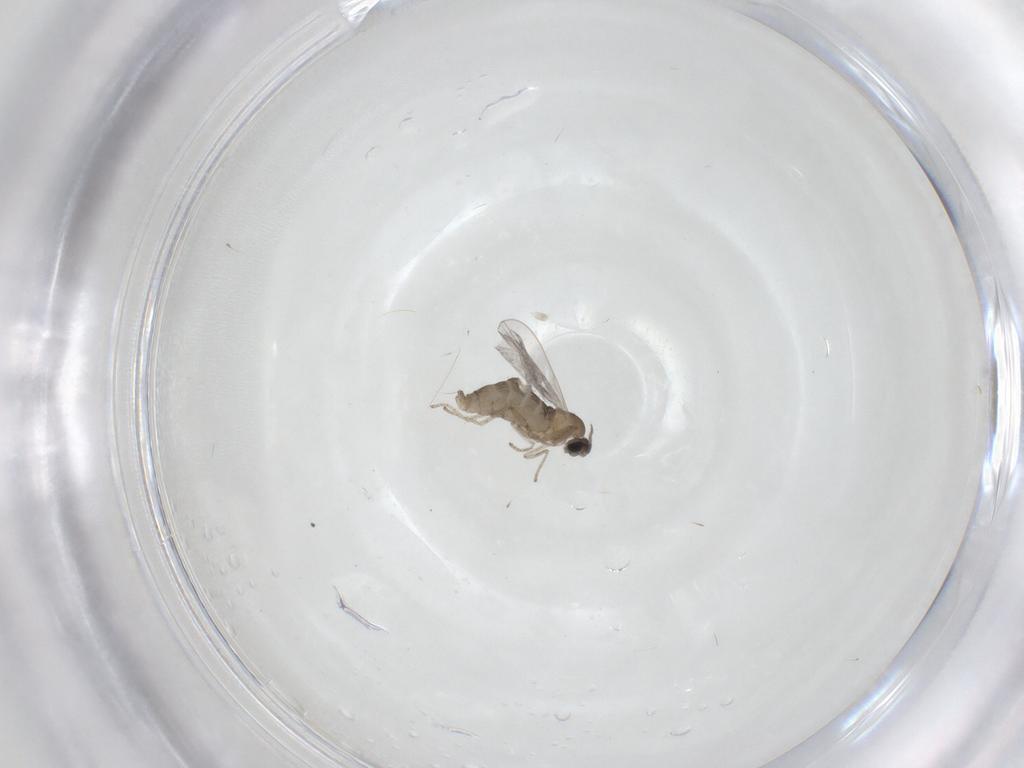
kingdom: Animalia
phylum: Arthropoda
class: Insecta
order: Diptera
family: Cecidomyiidae
